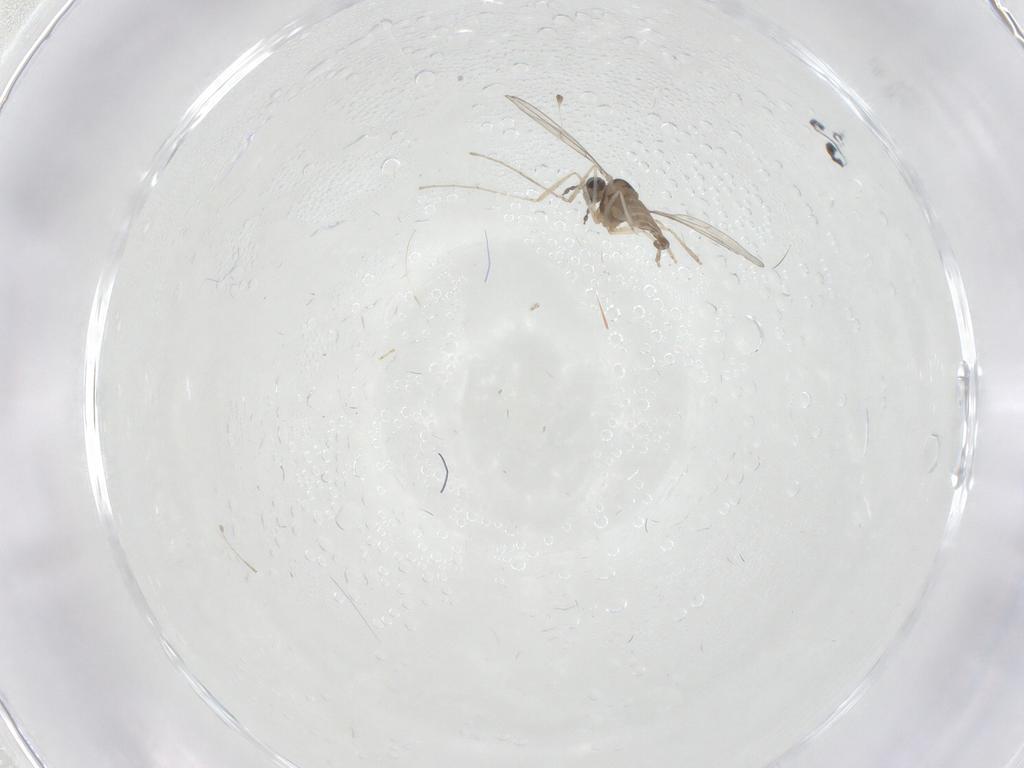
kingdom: Animalia
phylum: Arthropoda
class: Insecta
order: Diptera
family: Cecidomyiidae
